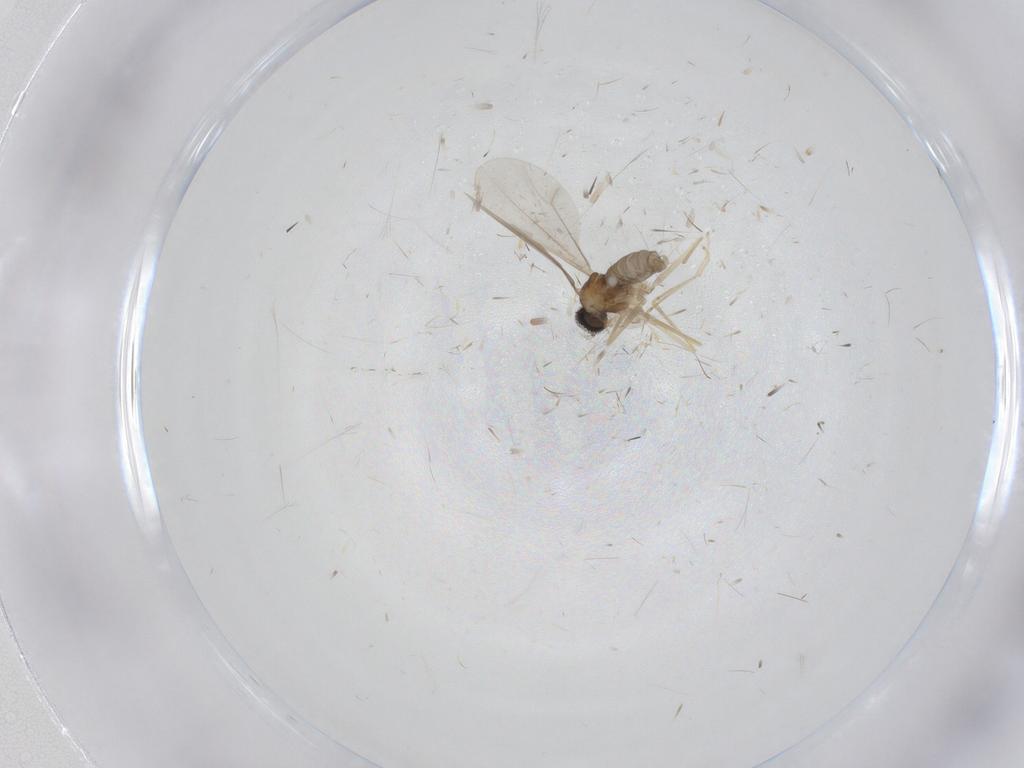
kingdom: Animalia
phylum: Arthropoda
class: Insecta
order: Diptera
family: Cecidomyiidae
